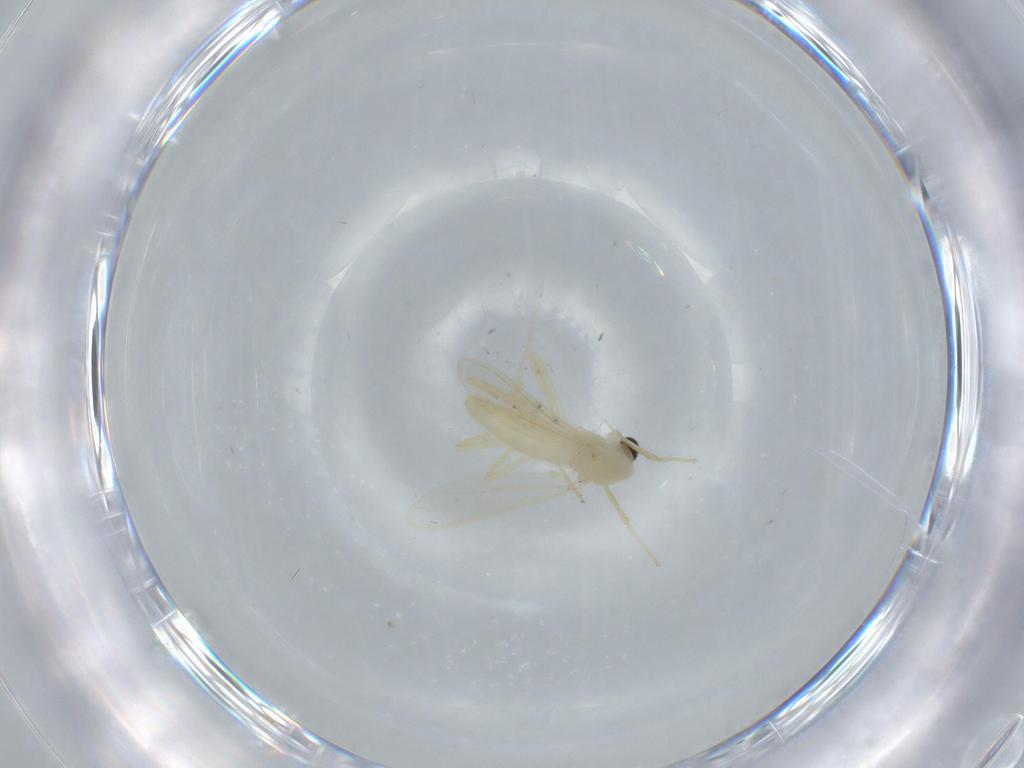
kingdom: Animalia
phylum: Arthropoda
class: Insecta
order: Diptera
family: Chironomidae
